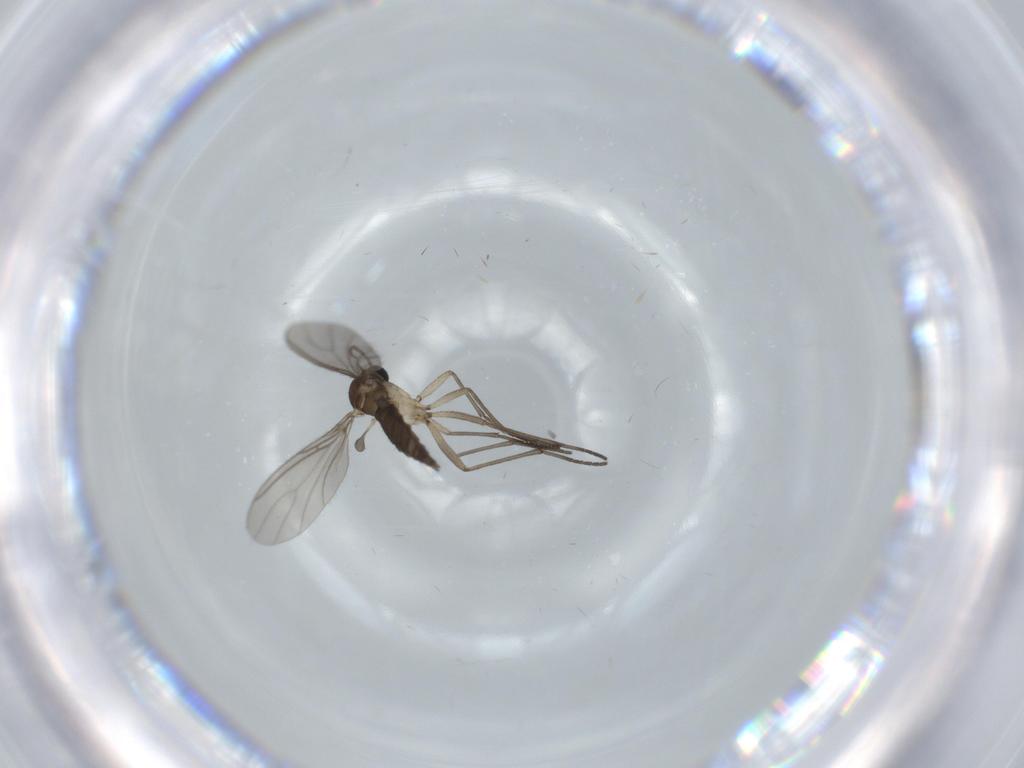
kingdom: Animalia
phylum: Arthropoda
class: Insecta
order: Diptera
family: Sciaridae
